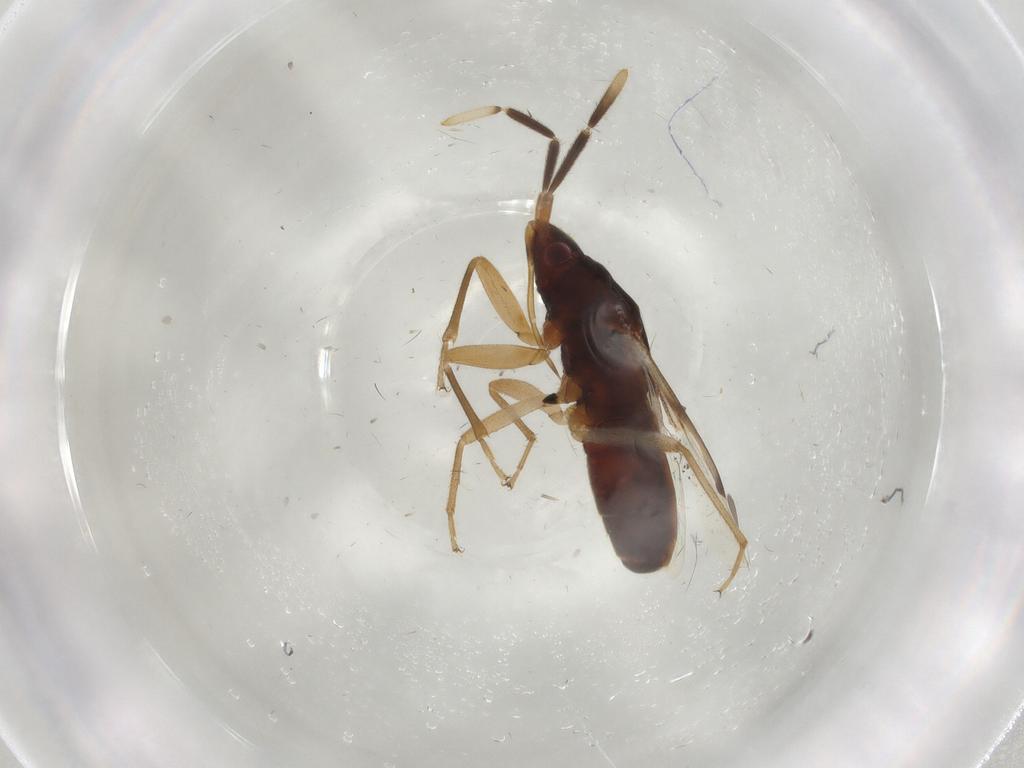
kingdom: Animalia
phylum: Arthropoda
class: Insecta
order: Hemiptera
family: Rhyparochromidae
